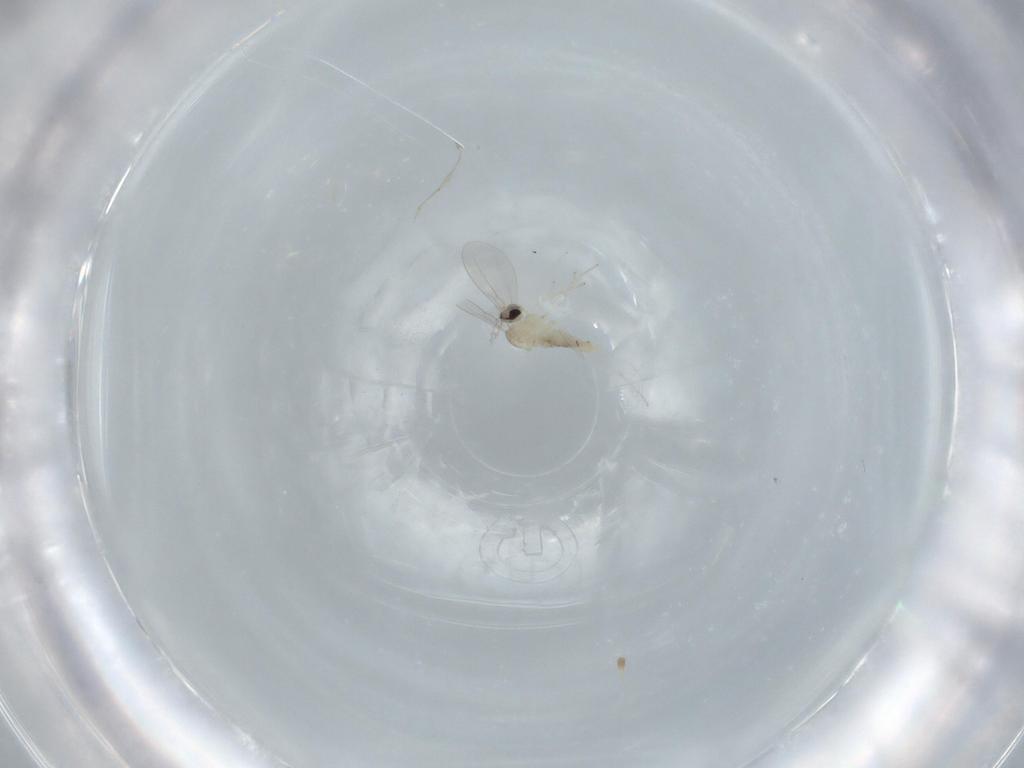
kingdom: Animalia
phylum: Arthropoda
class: Insecta
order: Diptera
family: Cecidomyiidae
